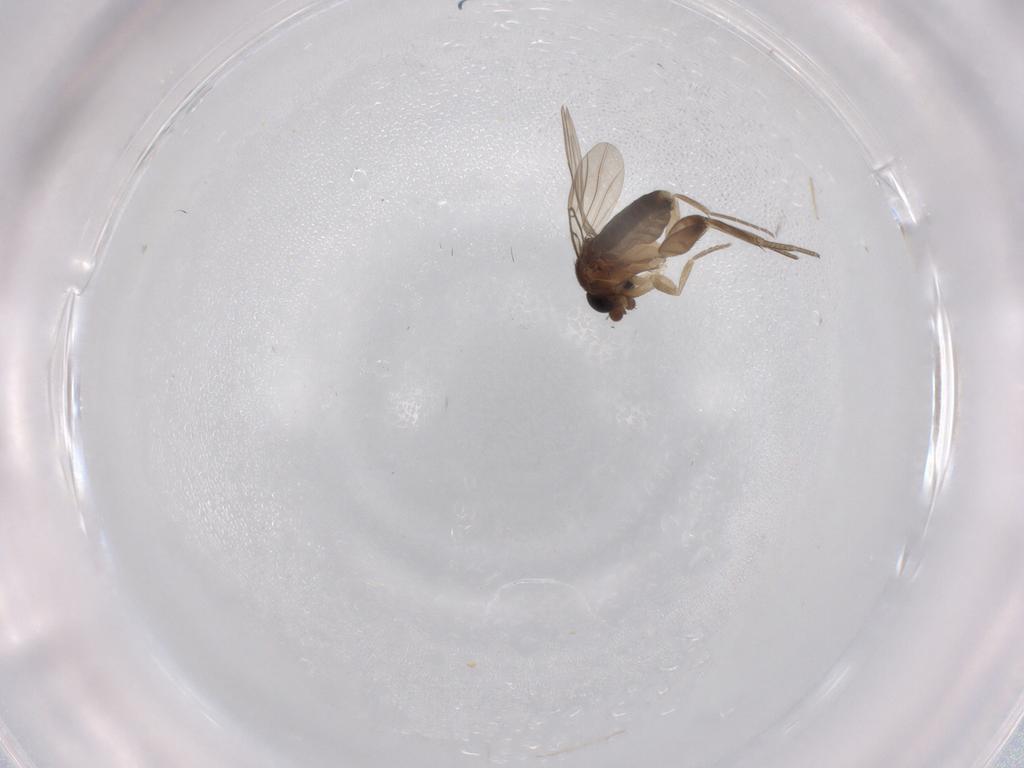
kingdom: Animalia
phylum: Arthropoda
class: Insecta
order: Diptera
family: Phoridae
